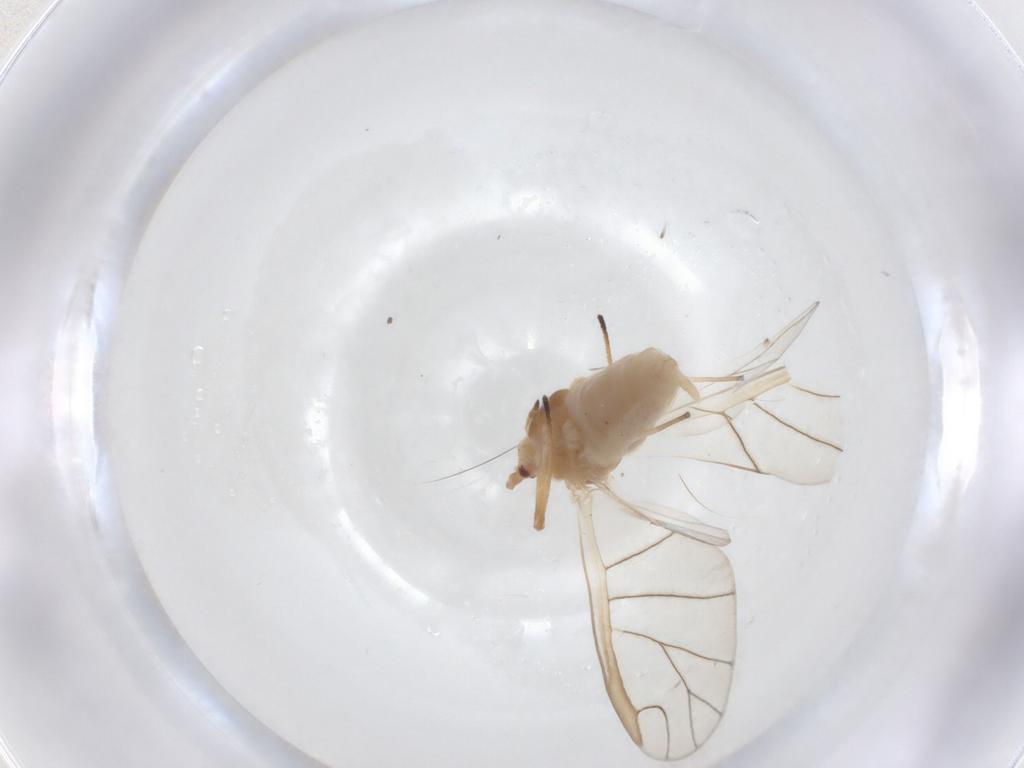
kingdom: Animalia
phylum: Arthropoda
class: Insecta
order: Hemiptera
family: Aphididae
